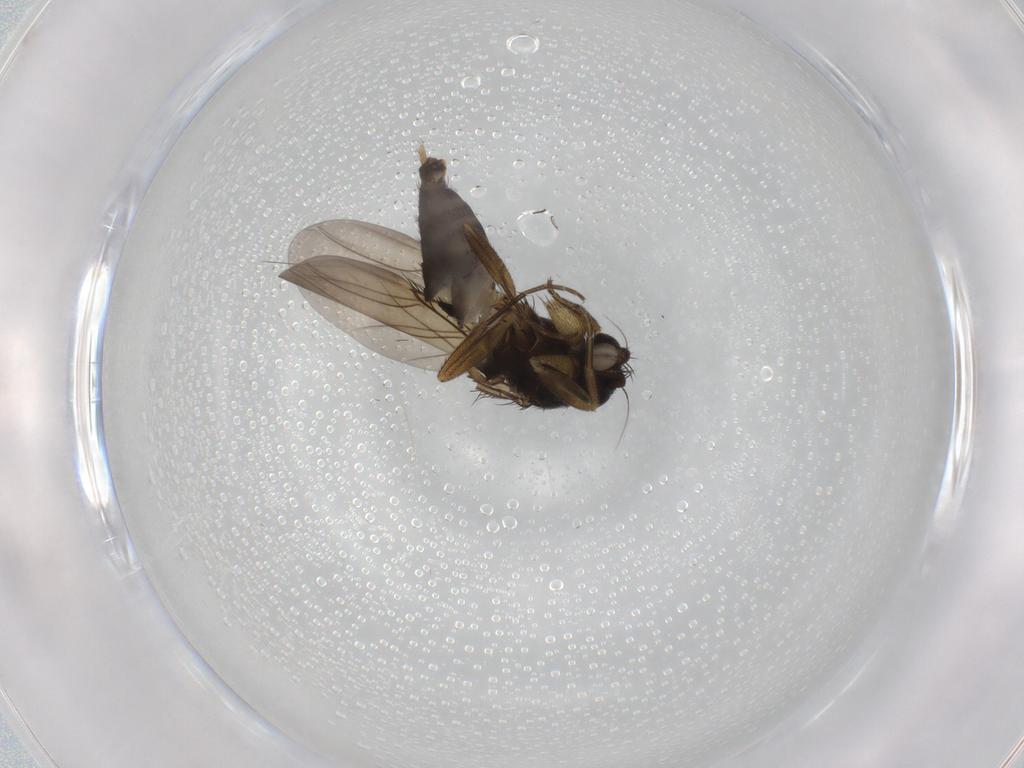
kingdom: Animalia
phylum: Arthropoda
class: Insecta
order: Diptera
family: Phoridae
